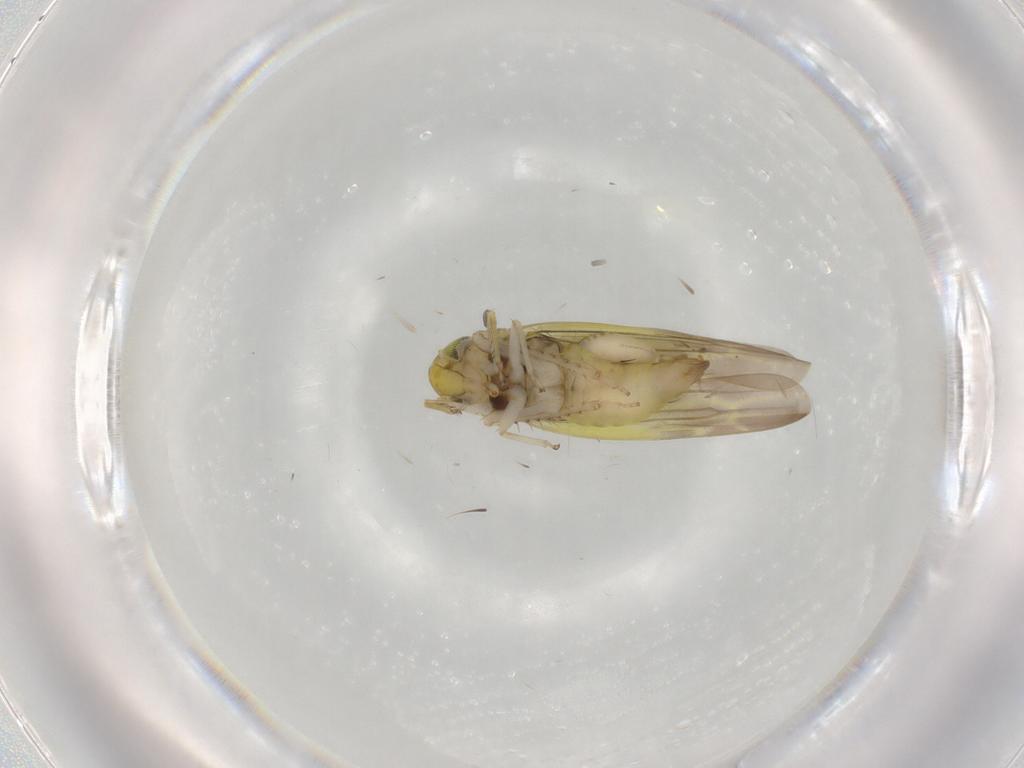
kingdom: Animalia
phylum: Arthropoda
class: Insecta
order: Hemiptera
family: Cicadellidae
